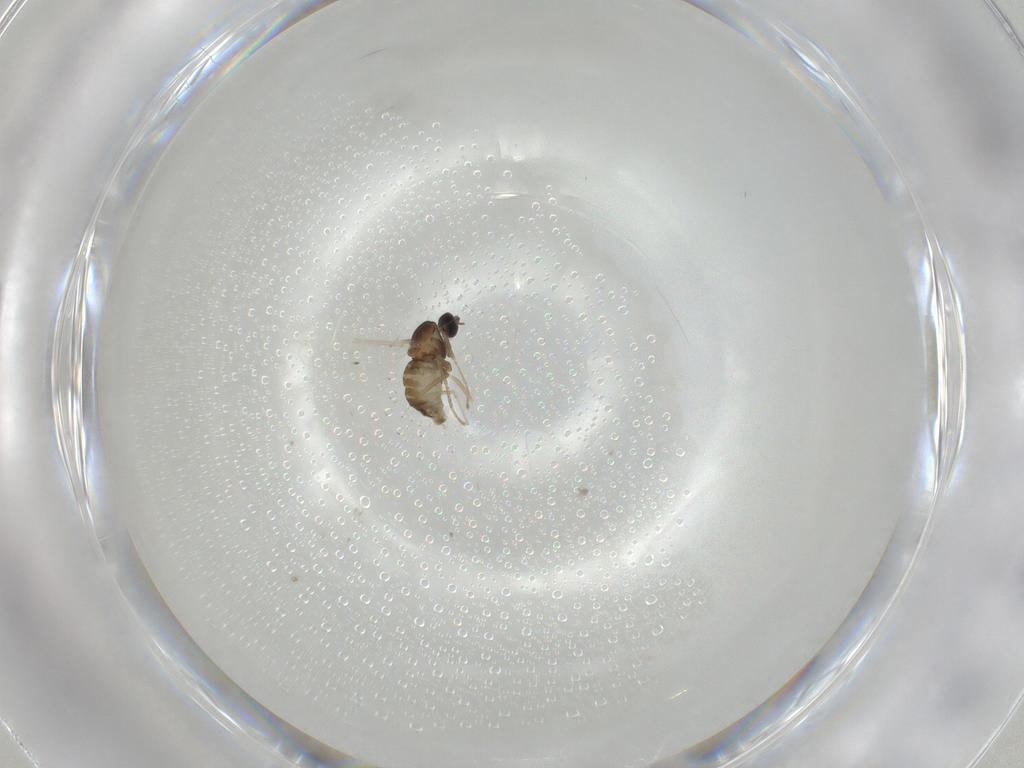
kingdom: Animalia
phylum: Arthropoda
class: Insecta
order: Diptera
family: Cecidomyiidae
